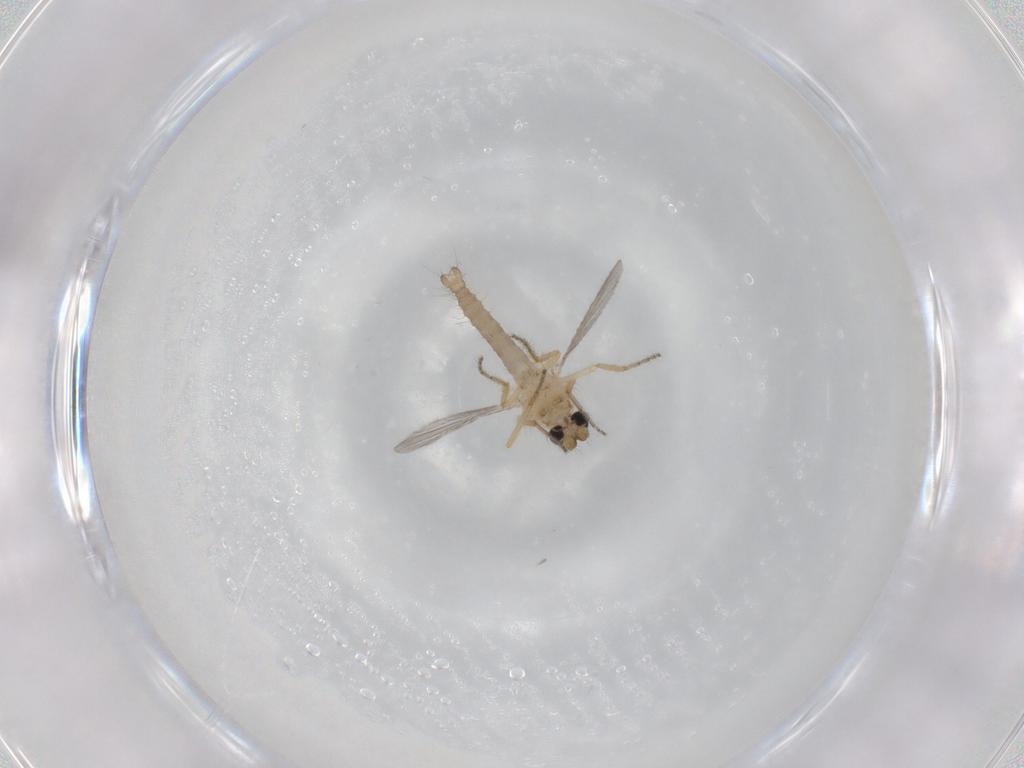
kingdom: Animalia
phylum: Arthropoda
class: Insecta
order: Diptera
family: Ceratopogonidae
